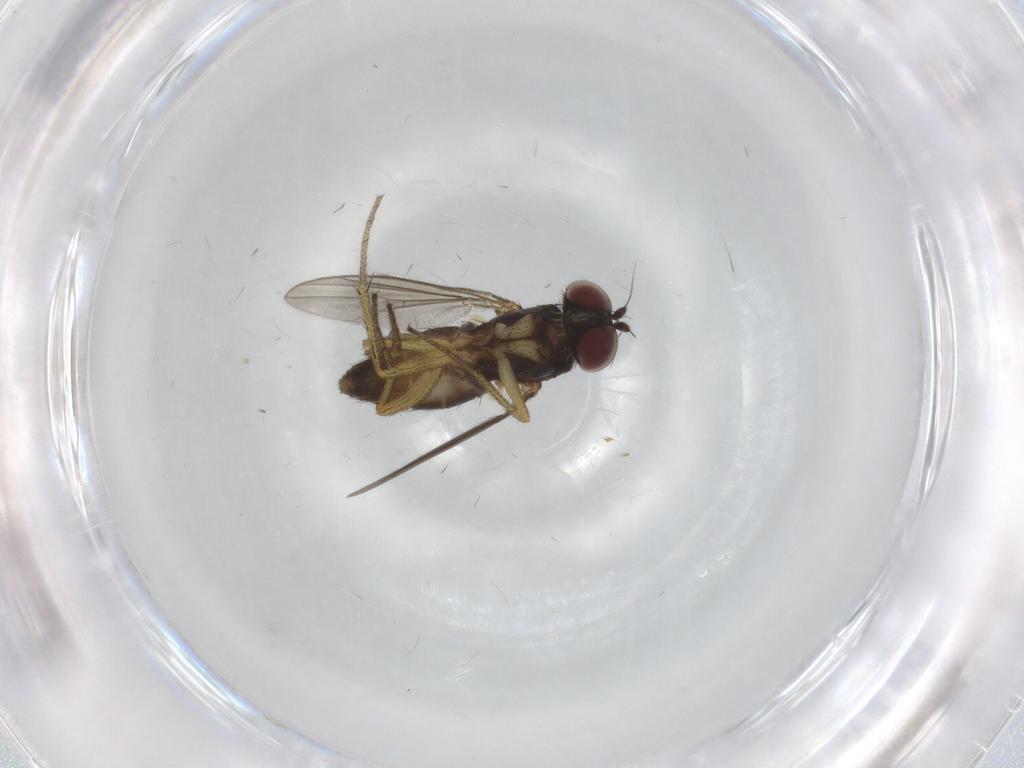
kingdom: Animalia
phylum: Arthropoda
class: Insecta
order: Diptera
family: Dolichopodidae
